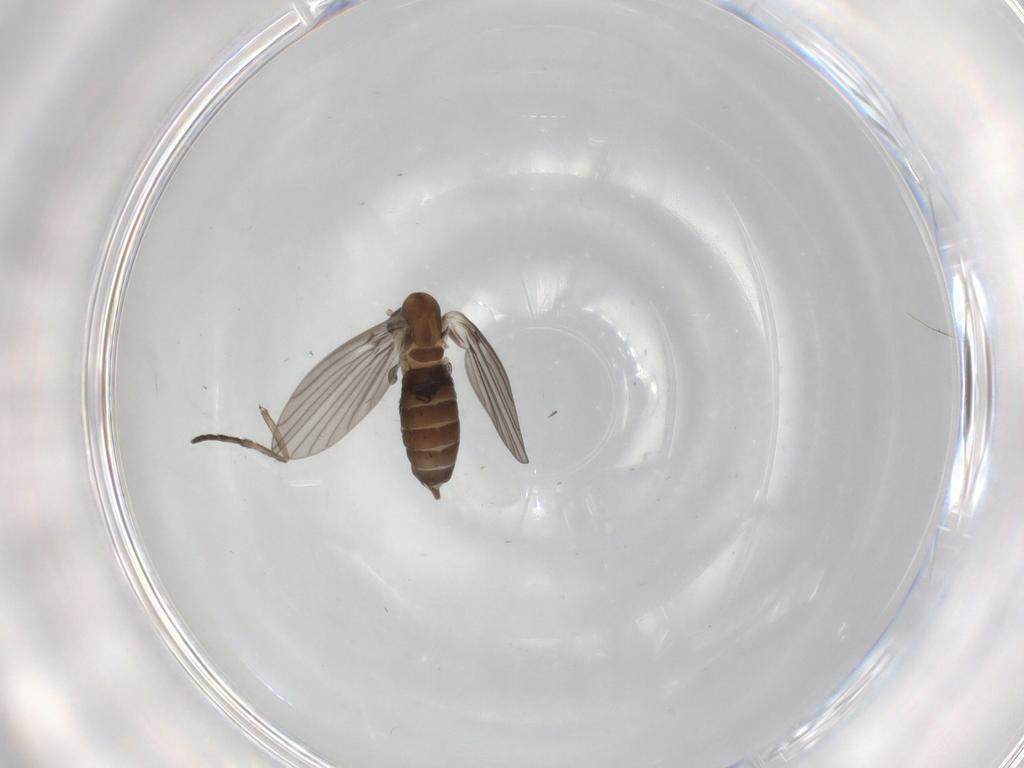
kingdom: Animalia
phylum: Arthropoda
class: Insecta
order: Diptera
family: Psychodidae
